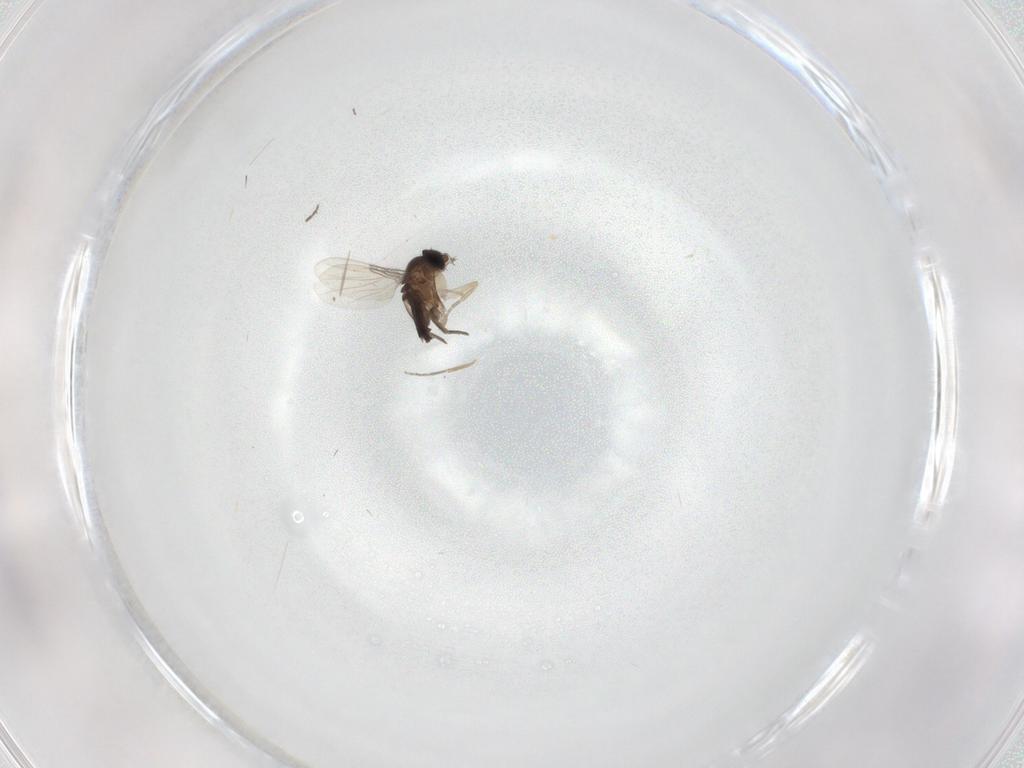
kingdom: Animalia
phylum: Arthropoda
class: Insecta
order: Diptera
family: Phoridae
